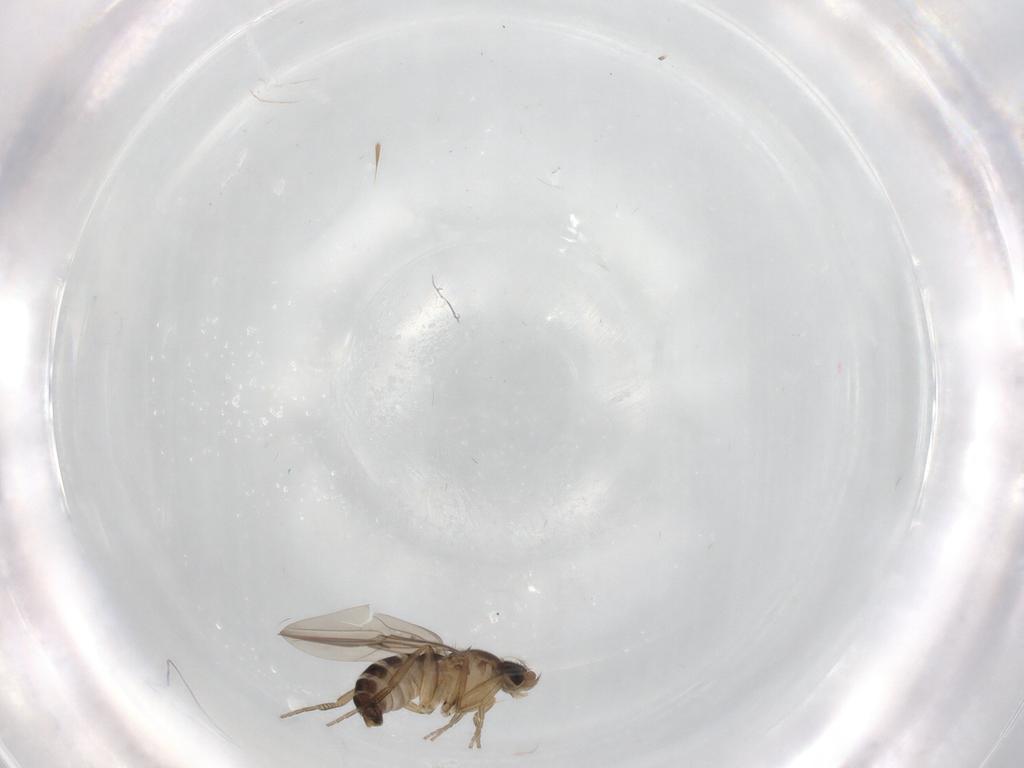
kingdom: Animalia
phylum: Arthropoda
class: Insecta
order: Diptera
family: Phoridae
